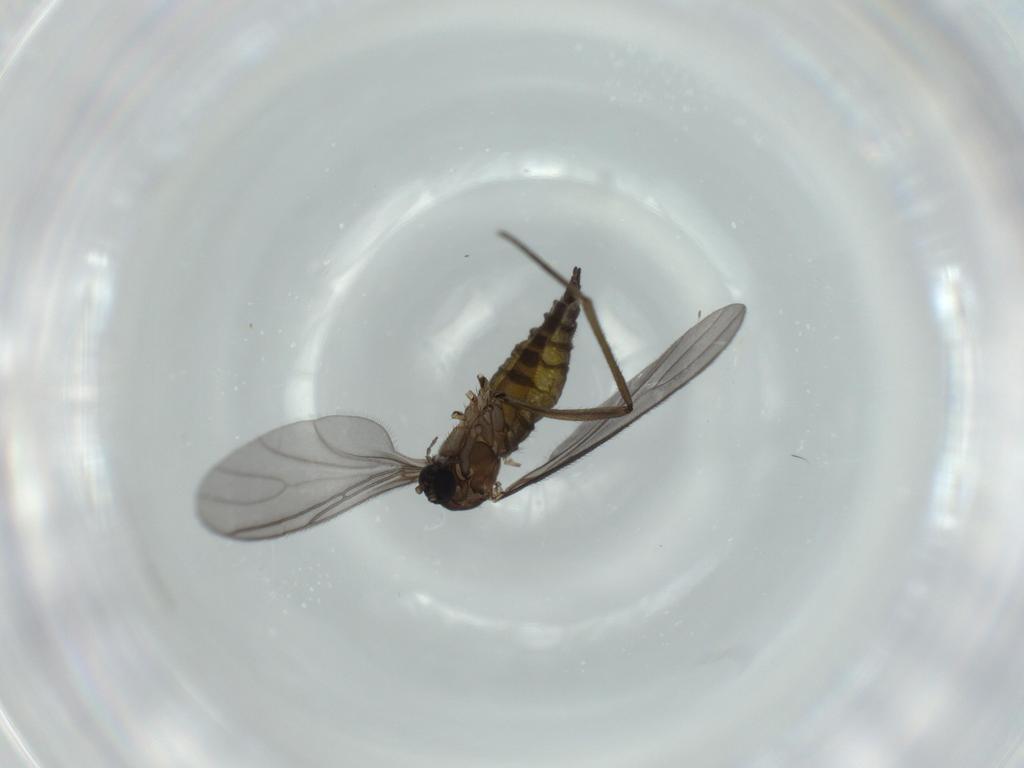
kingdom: Animalia
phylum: Arthropoda
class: Insecta
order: Diptera
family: Sciaridae
